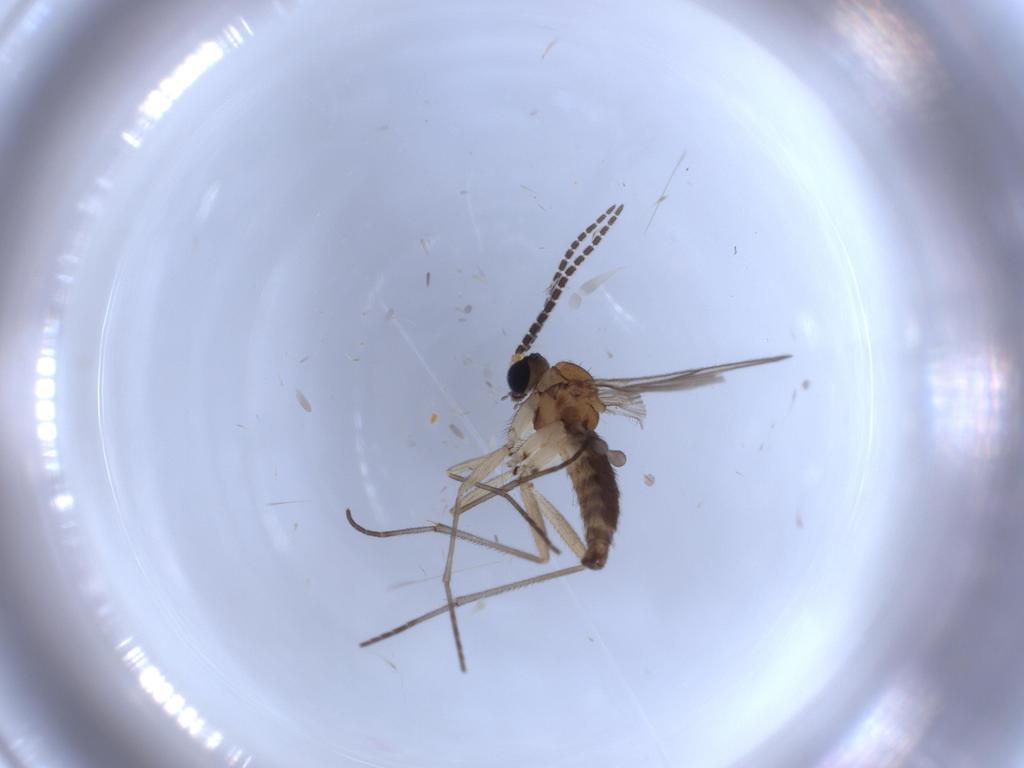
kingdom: Animalia
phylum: Arthropoda
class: Insecta
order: Diptera
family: Sciaridae
